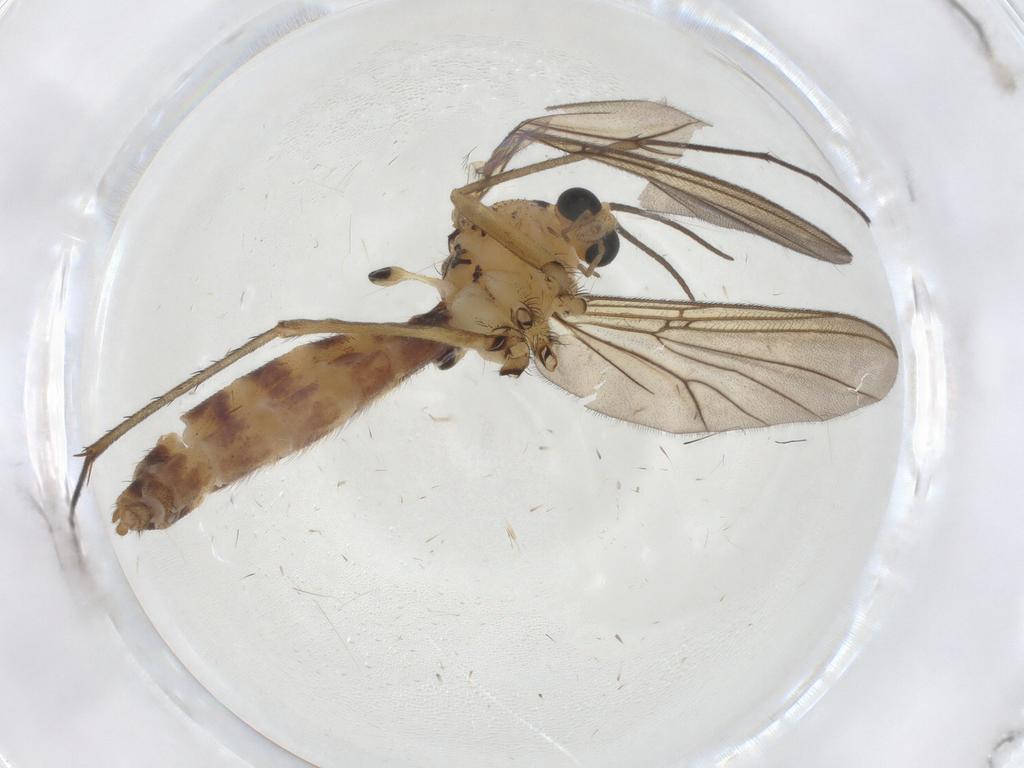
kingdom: Animalia
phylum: Arthropoda
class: Insecta
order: Diptera
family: Mycetophilidae
